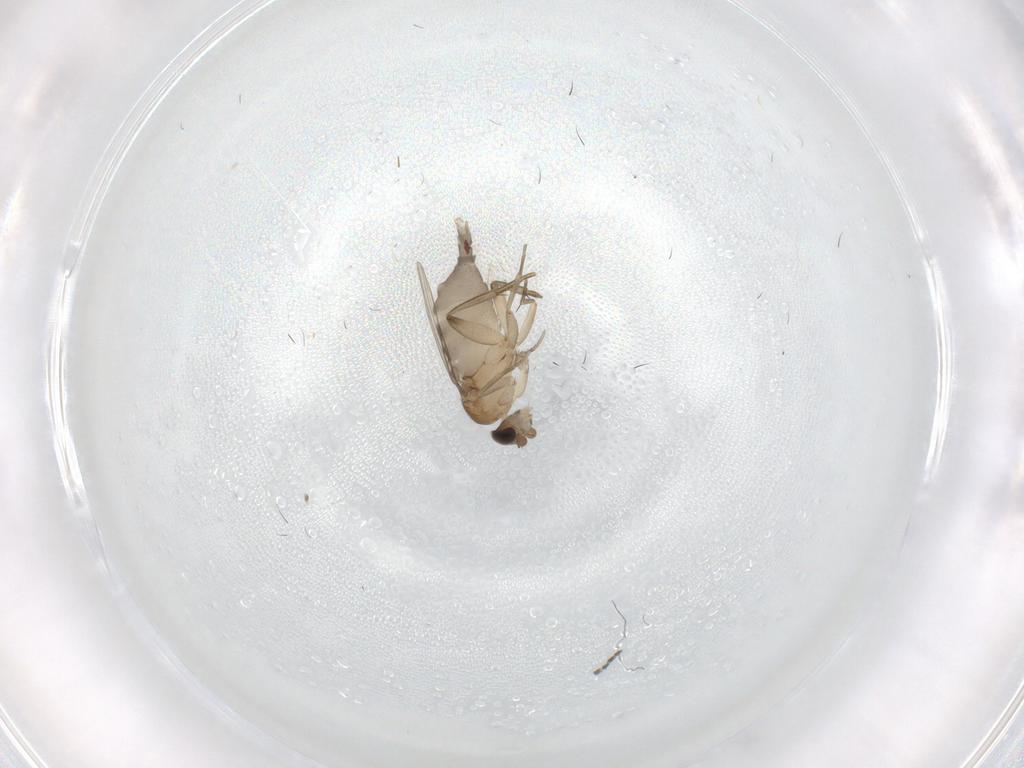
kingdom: Animalia
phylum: Arthropoda
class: Insecta
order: Diptera
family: Phoridae
